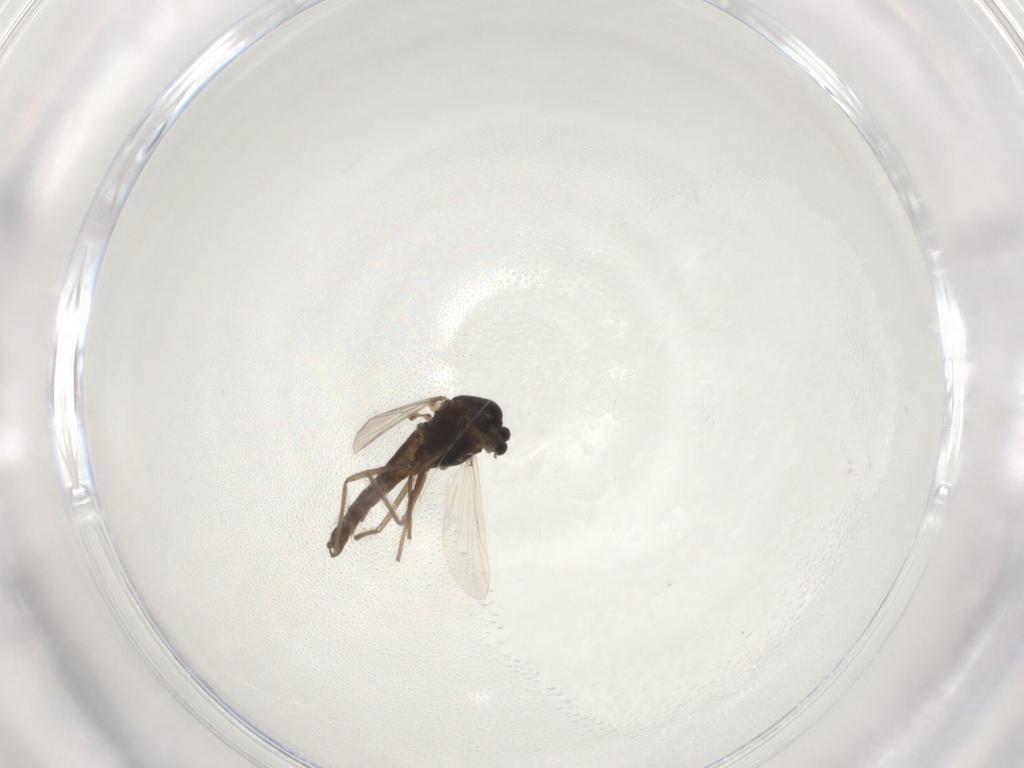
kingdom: Animalia
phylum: Arthropoda
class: Insecta
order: Diptera
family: Chironomidae
